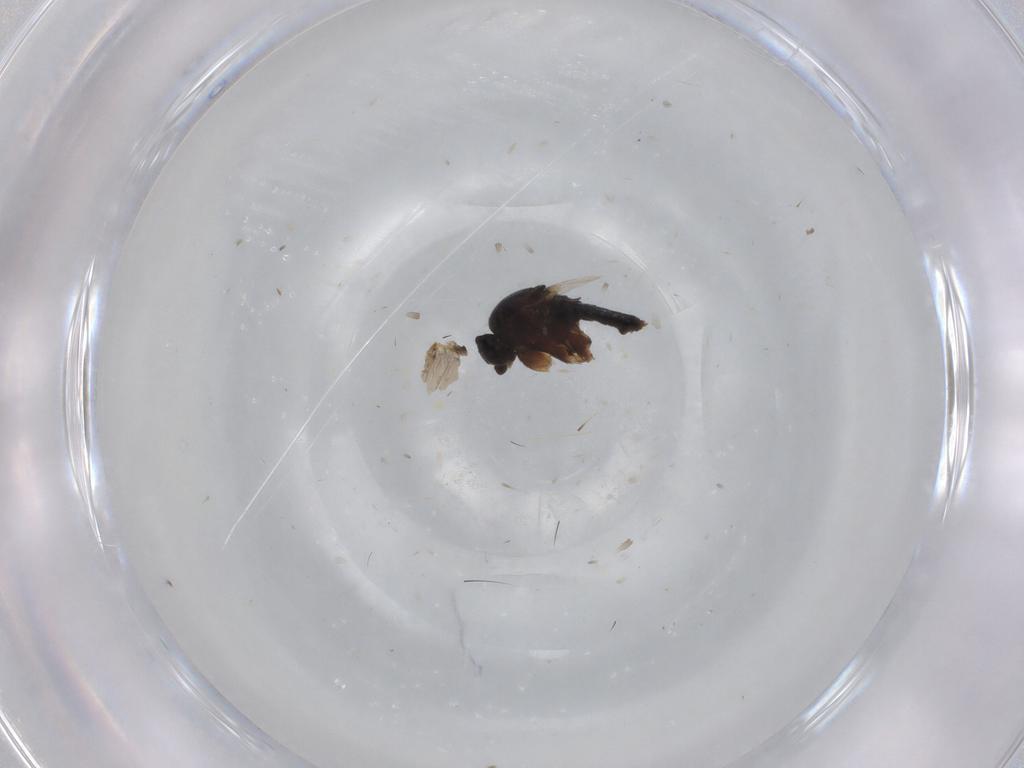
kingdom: Animalia
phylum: Arthropoda
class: Insecta
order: Diptera
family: Phoridae
